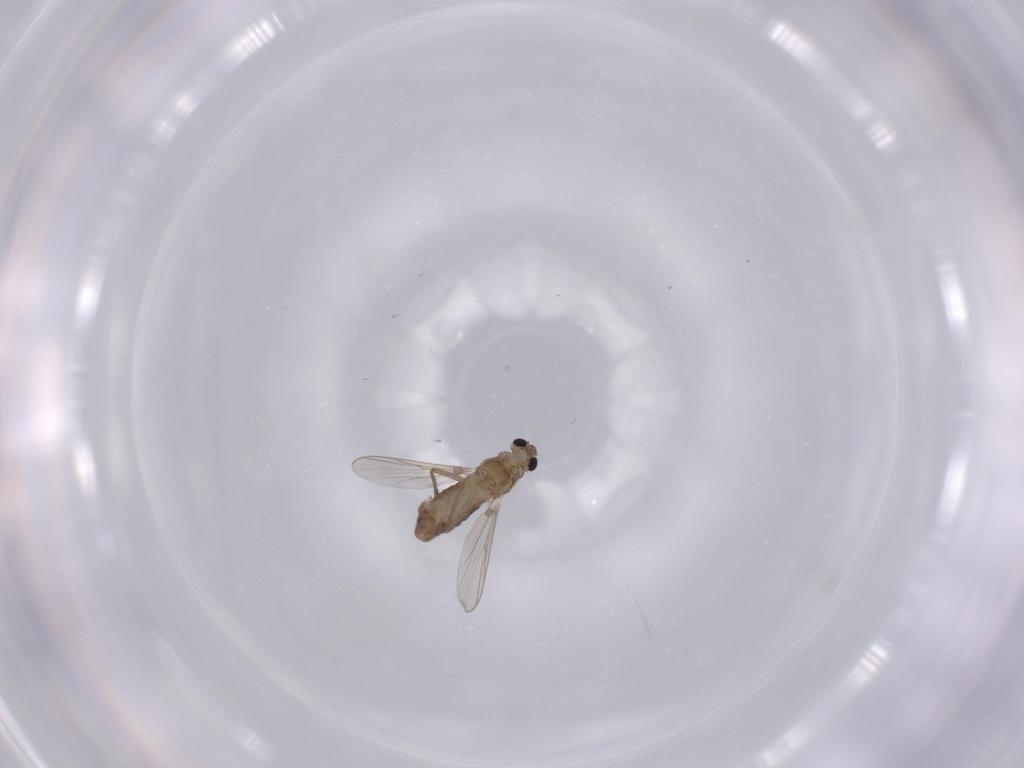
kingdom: Animalia
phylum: Arthropoda
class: Insecta
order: Diptera
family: Chironomidae
